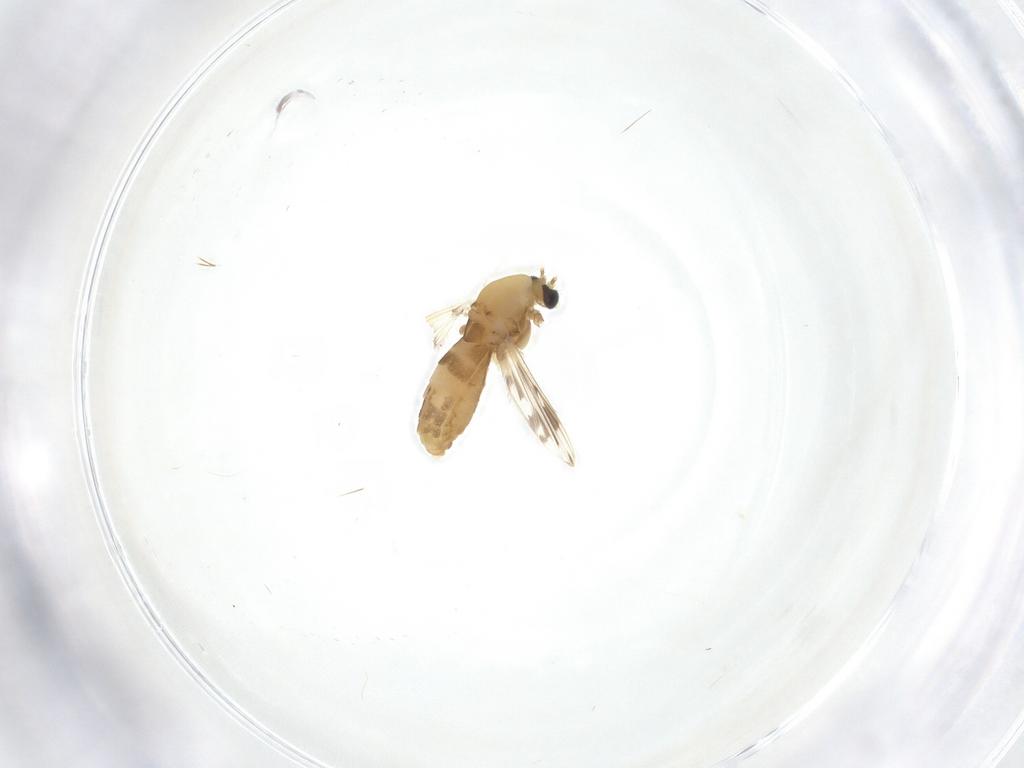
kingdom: Animalia
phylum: Arthropoda
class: Insecta
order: Diptera
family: Chironomidae
